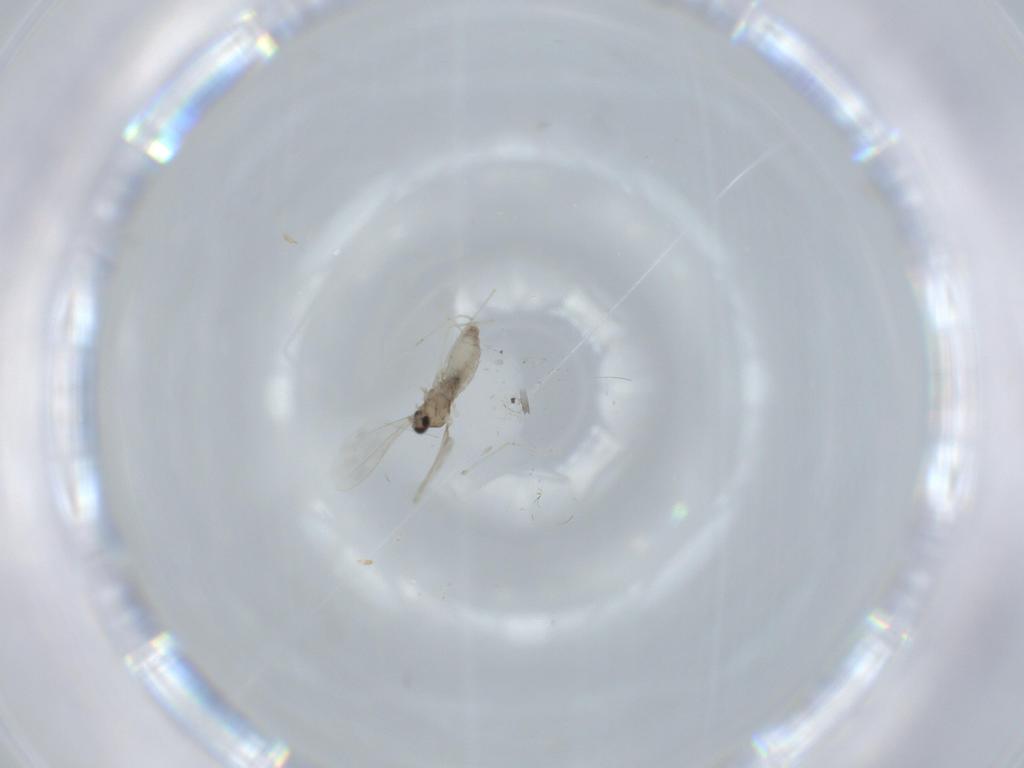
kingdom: Animalia
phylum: Arthropoda
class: Insecta
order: Diptera
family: Cecidomyiidae
